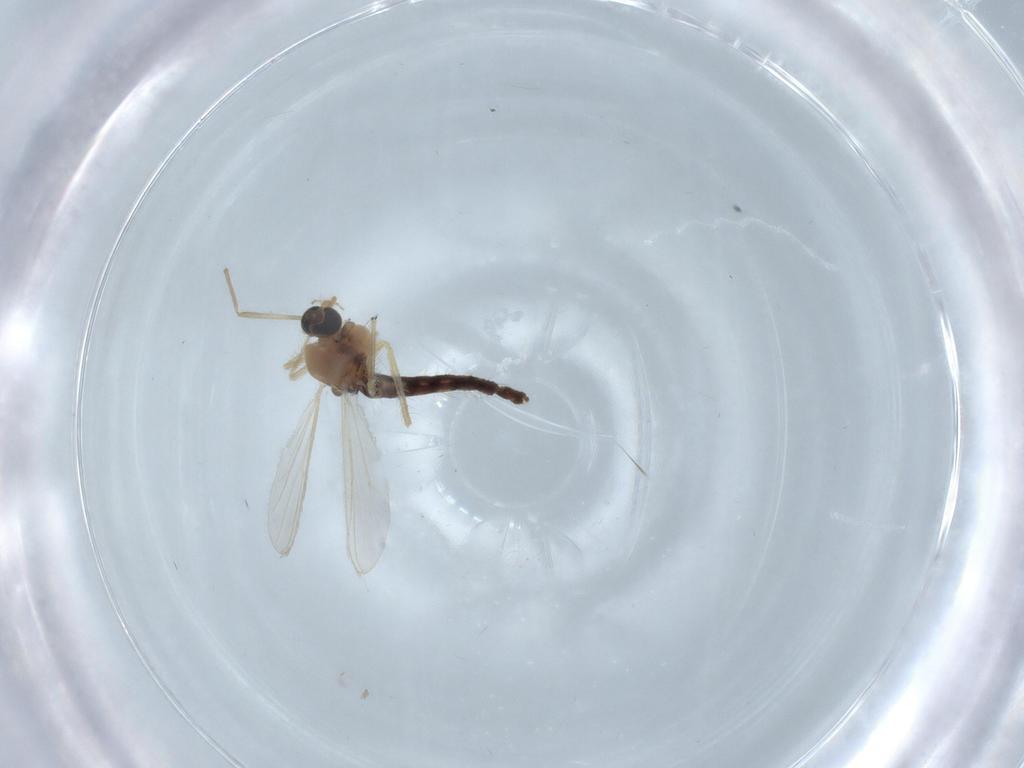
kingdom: Animalia
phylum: Arthropoda
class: Insecta
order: Diptera
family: Chironomidae
